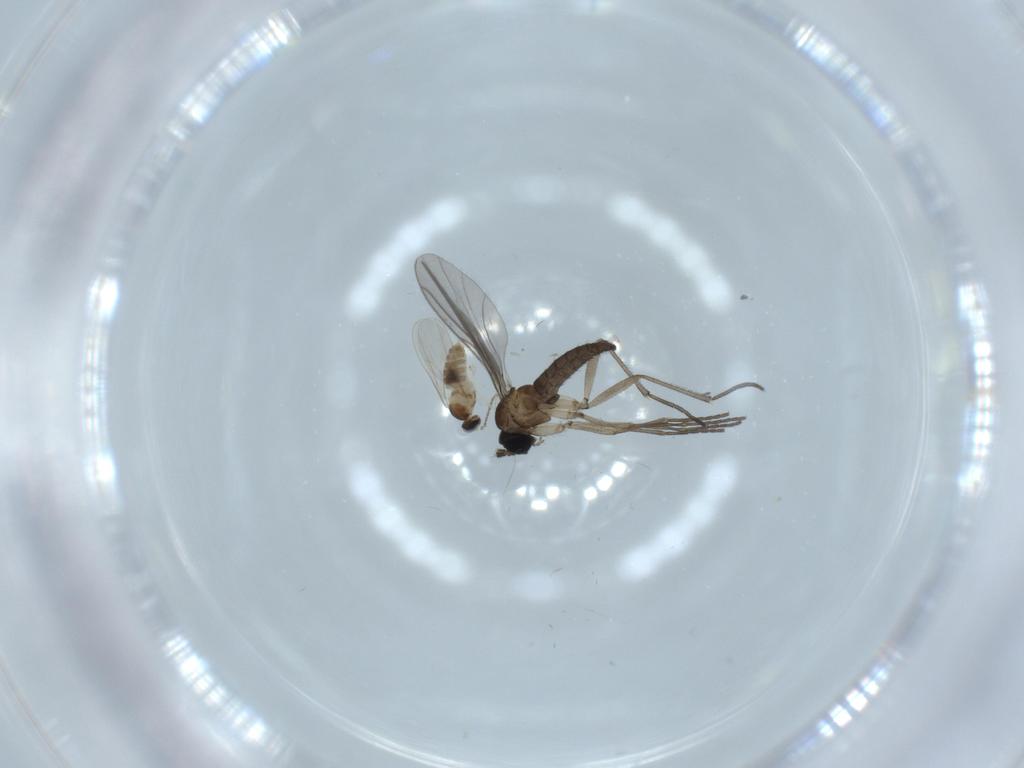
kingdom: Animalia
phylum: Arthropoda
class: Insecta
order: Diptera
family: Cecidomyiidae
